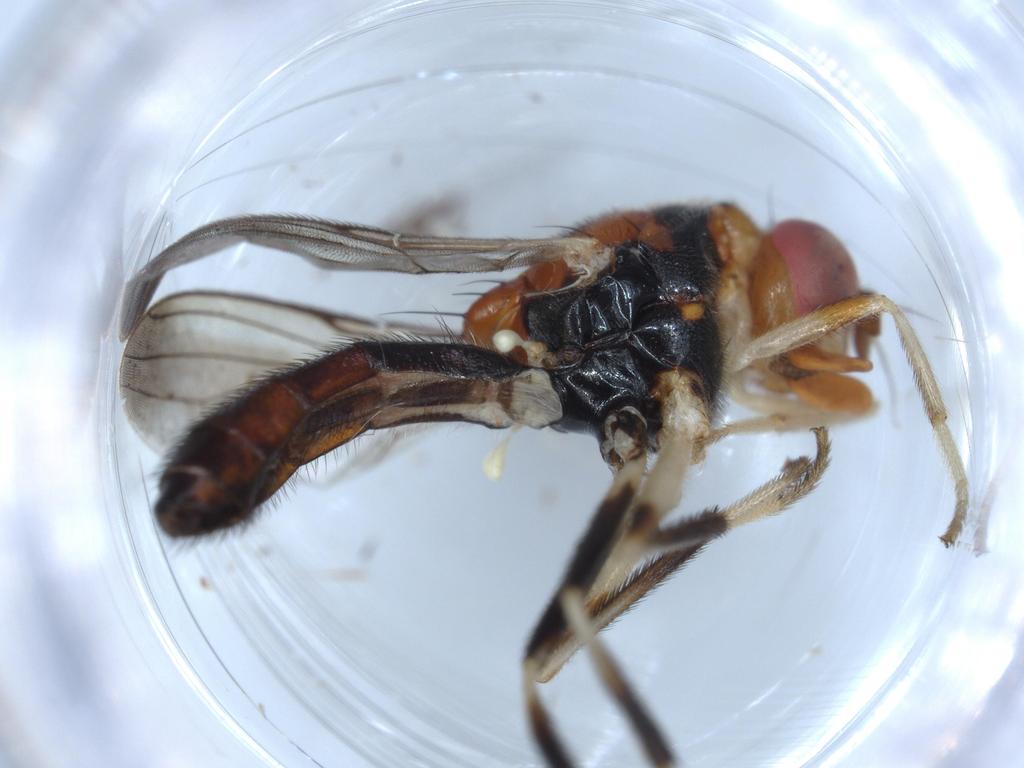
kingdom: Animalia
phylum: Arthropoda
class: Insecta
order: Diptera
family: Calliphoridae
